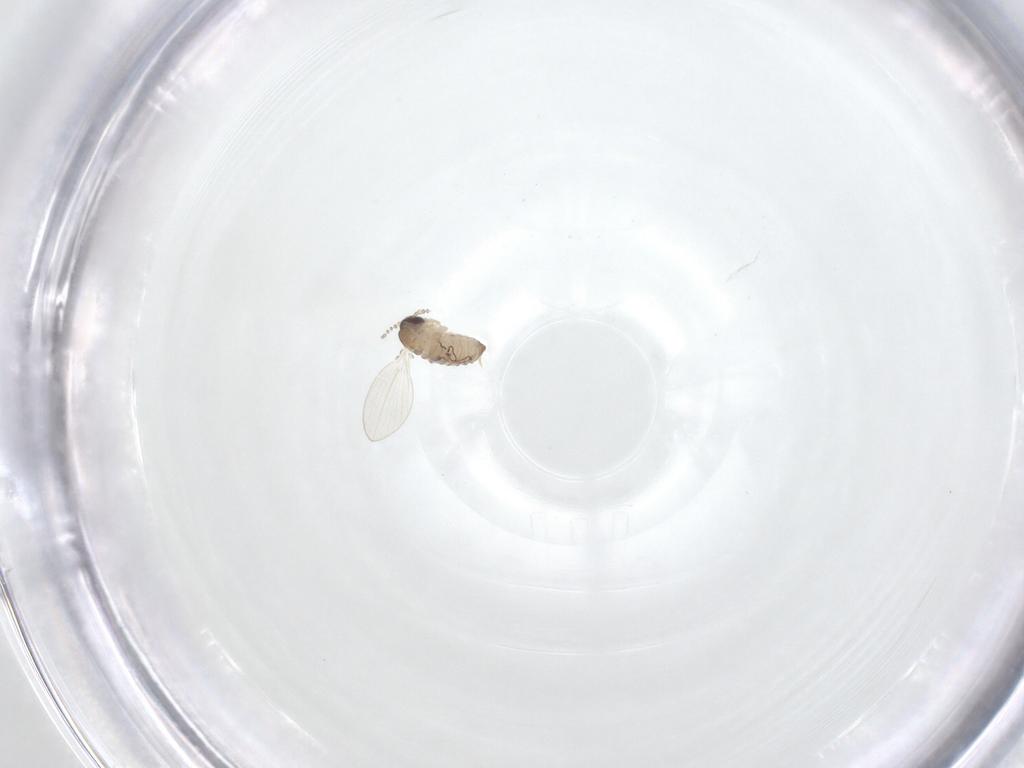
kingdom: Animalia
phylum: Arthropoda
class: Insecta
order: Diptera
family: Psychodidae
